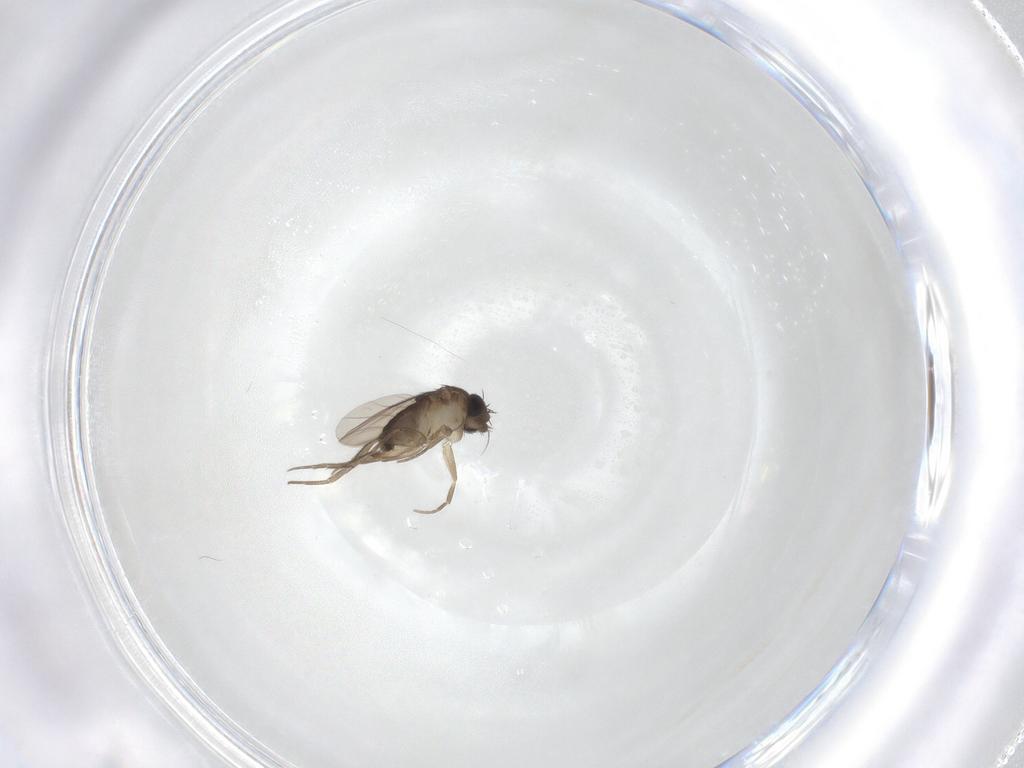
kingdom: Animalia
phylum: Arthropoda
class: Insecta
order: Diptera
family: Phoridae
